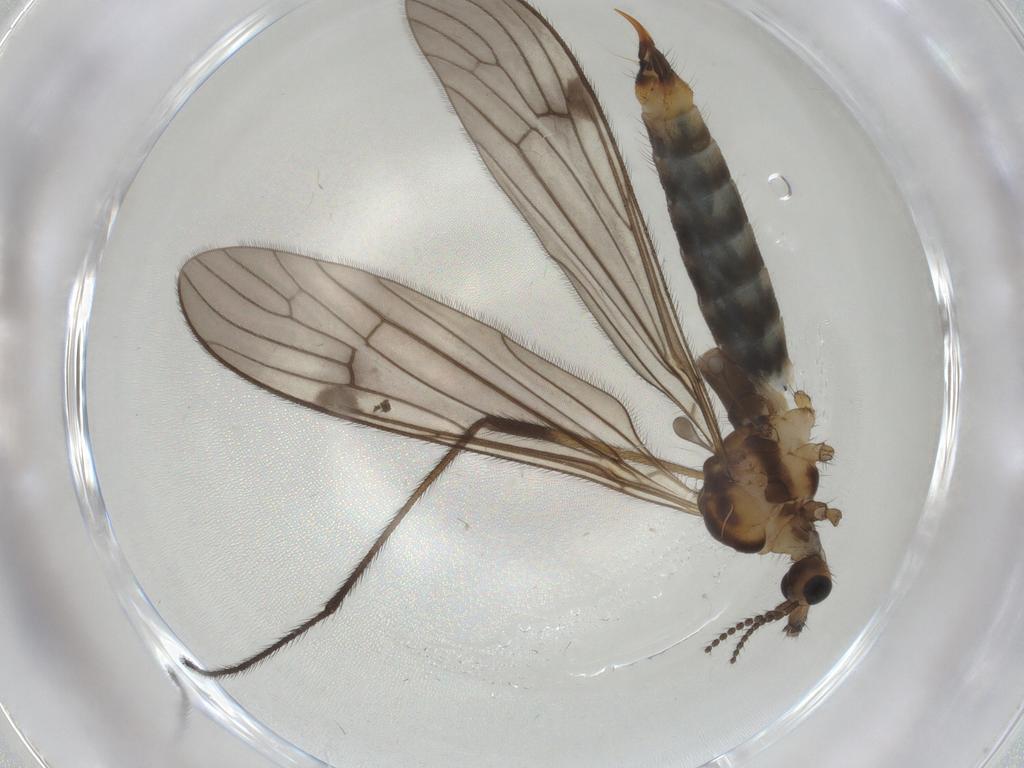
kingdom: Animalia
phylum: Arthropoda
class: Insecta
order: Diptera
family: Limoniidae
